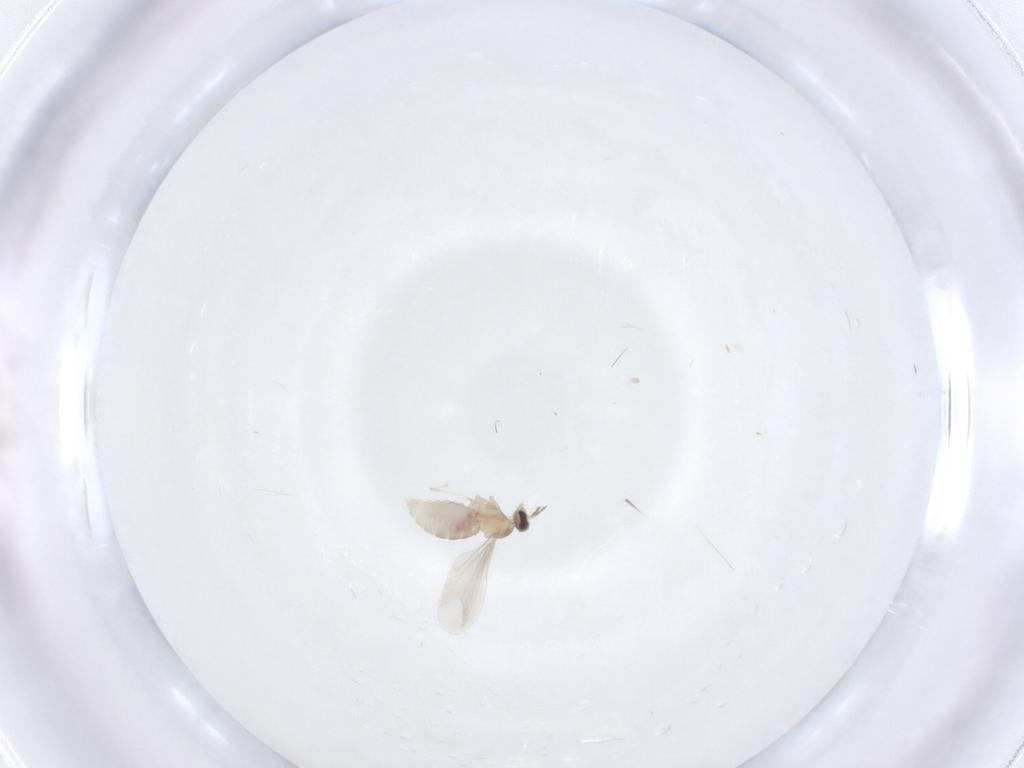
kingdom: Animalia
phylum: Arthropoda
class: Insecta
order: Diptera
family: Cecidomyiidae
